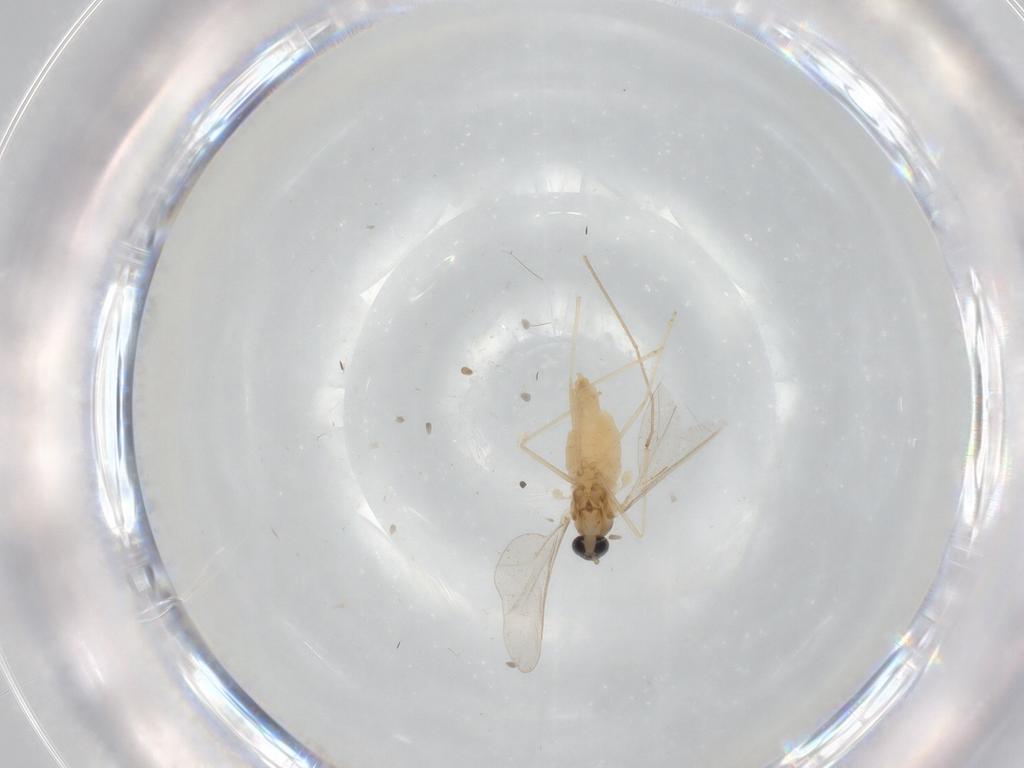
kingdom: Animalia
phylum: Arthropoda
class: Insecta
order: Diptera
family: Cecidomyiidae
